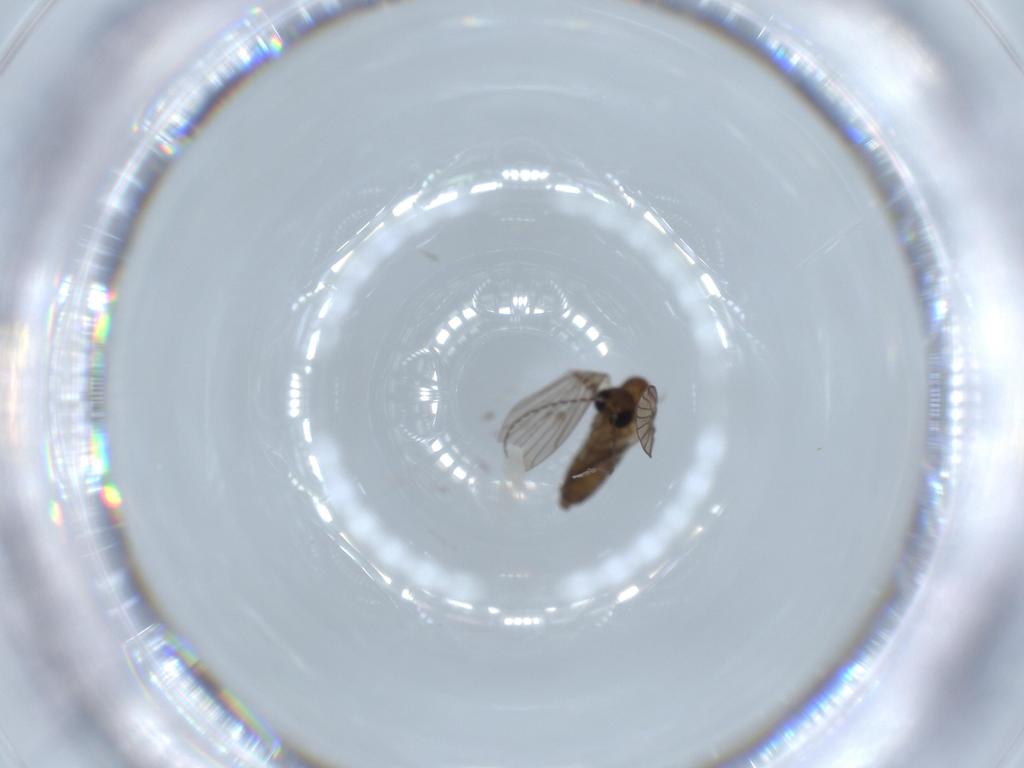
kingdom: Animalia
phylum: Arthropoda
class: Insecta
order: Diptera
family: Psychodidae
